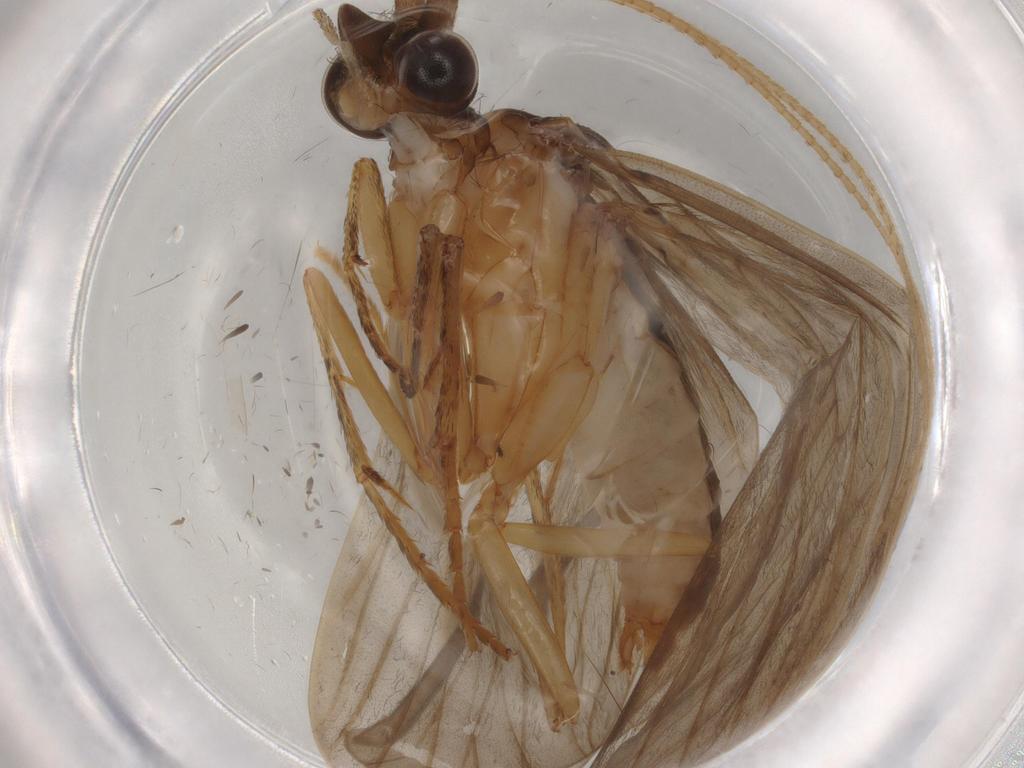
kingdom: Animalia
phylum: Arthropoda
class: Insecta
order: Trichoptera
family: Lepidostomatidae
